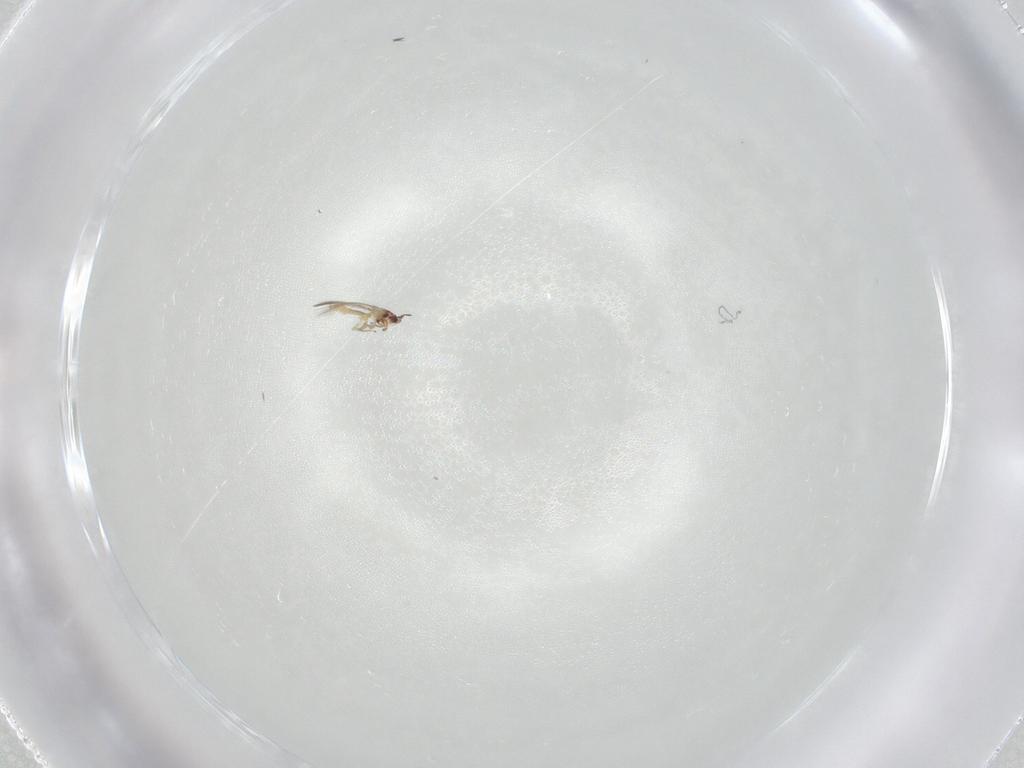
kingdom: Animalia
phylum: Arthropoda
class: Insecta
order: Thysanoptera
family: Thripidae
